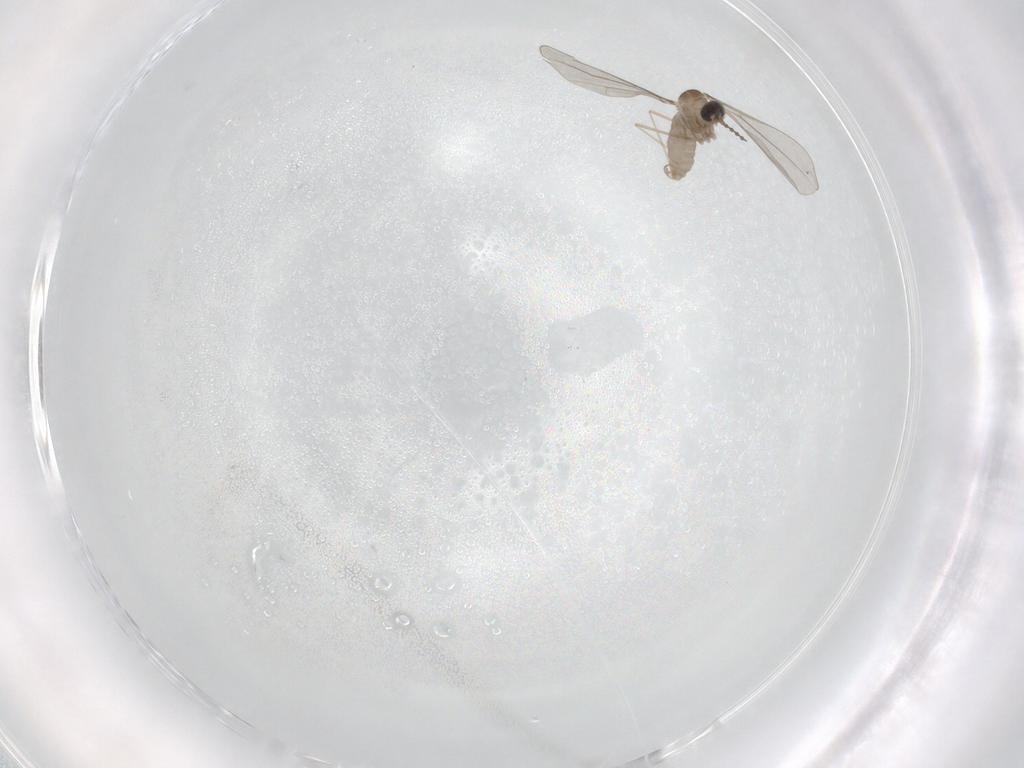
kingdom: Animalia
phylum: Arthropoda
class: Insecta
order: Diptera
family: Cecidomyiidae
